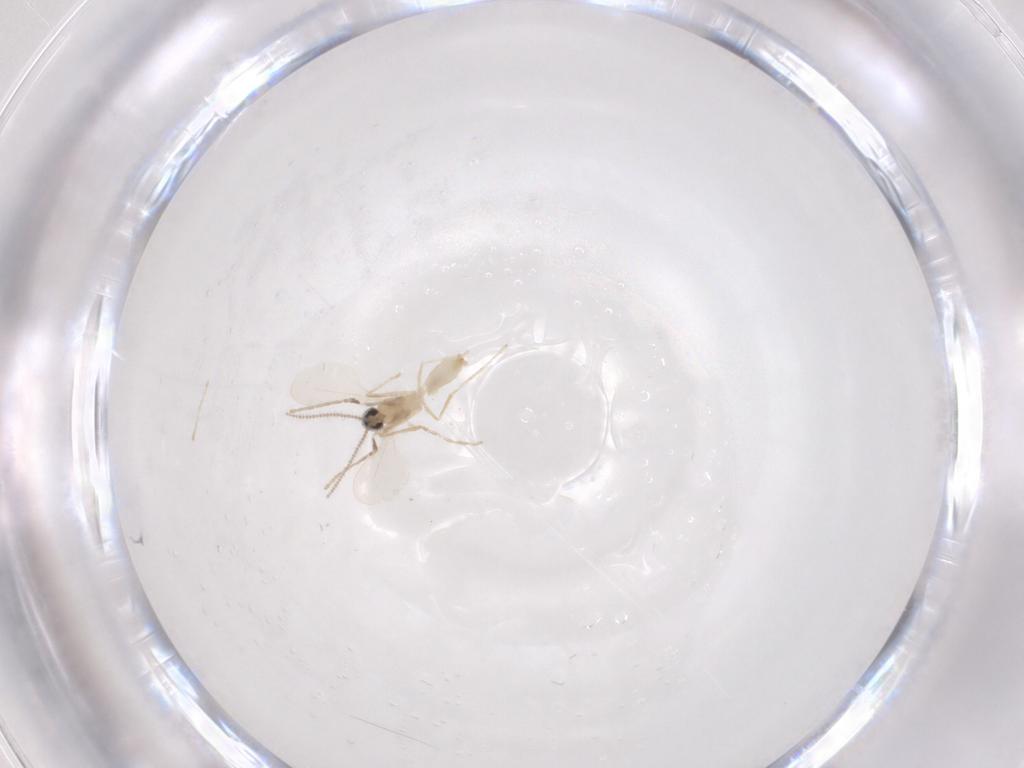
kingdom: Animalia
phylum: Arthropoda
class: Insecta
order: Diptera
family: Cecidomyiidae
